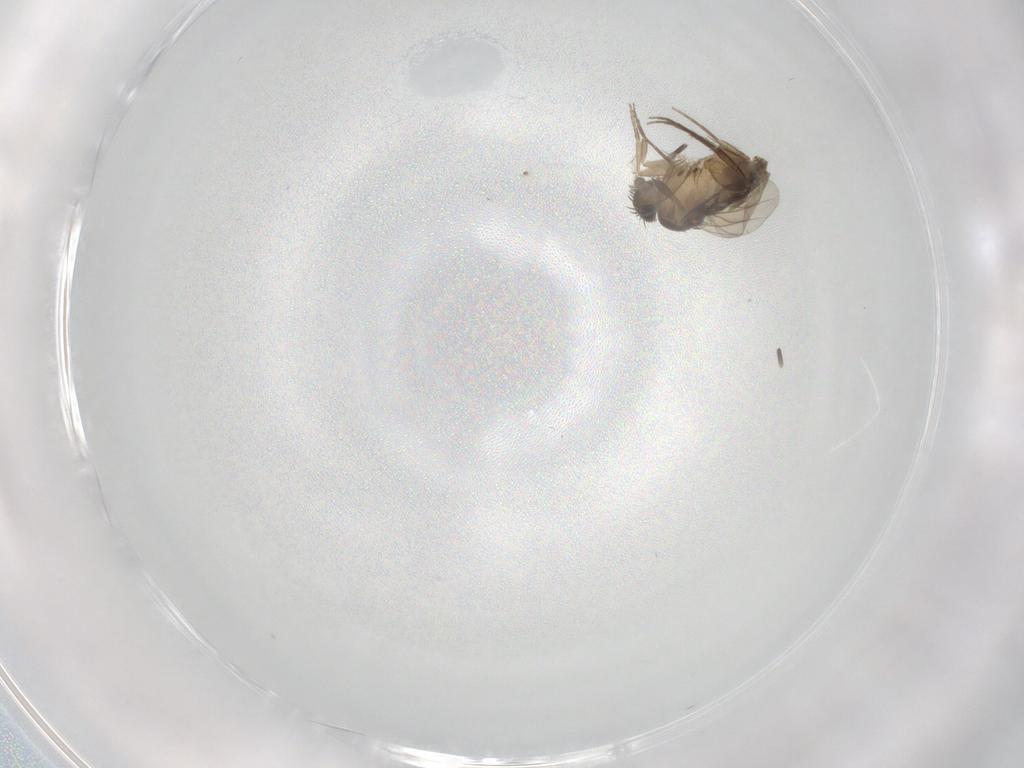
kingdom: Animalia
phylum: Arthropoda
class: Insecta
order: Diptera
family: Phoridae
